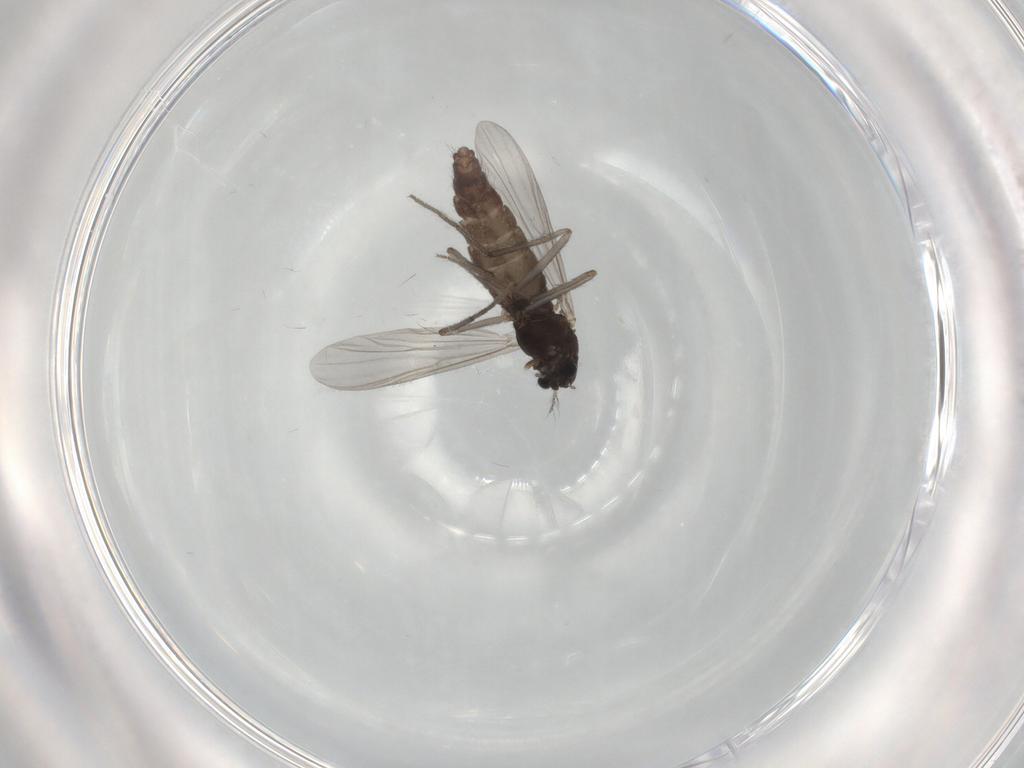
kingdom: Animalia
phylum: Arthropoda
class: Insecta
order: Diptera
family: Chironomidae
